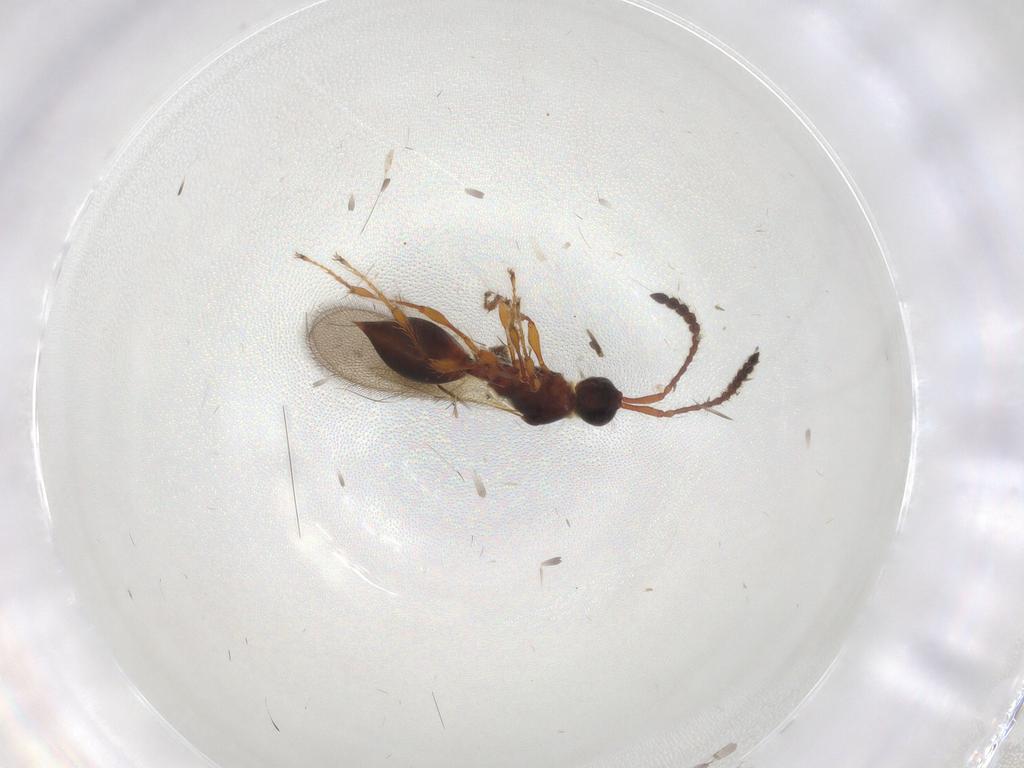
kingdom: Animalia
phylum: Arthropoda
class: Insecta
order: Hymenoptera
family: Diapriidae
